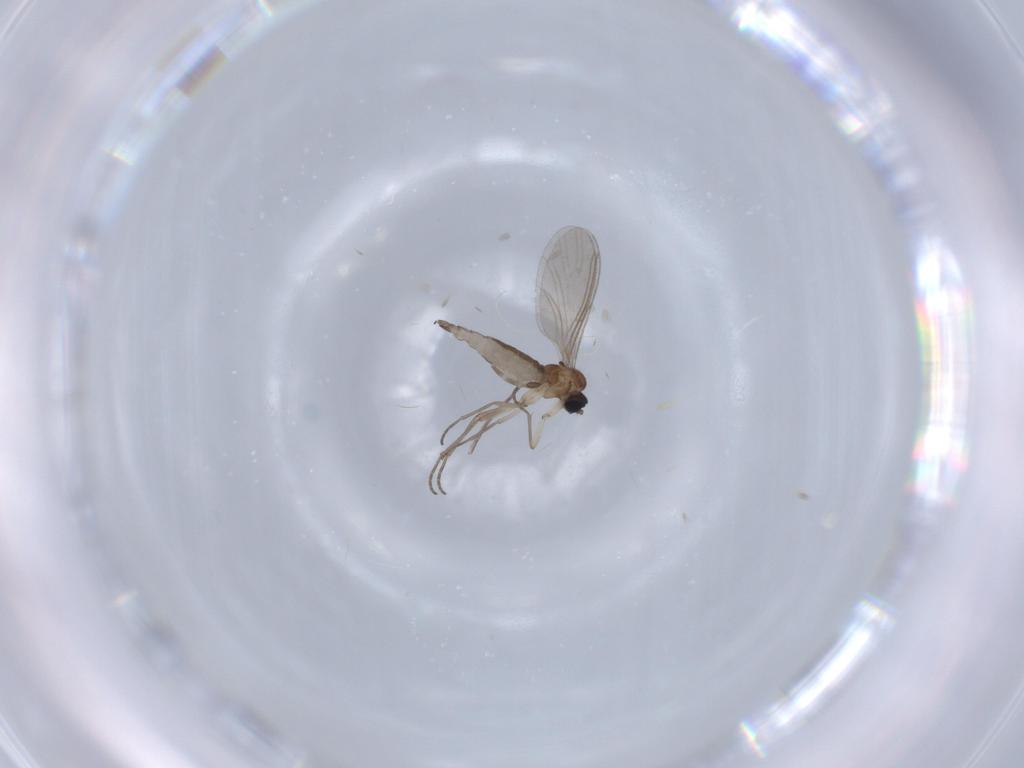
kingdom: Animalia
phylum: Arthropoda
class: Insecta
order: Diptera
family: Sciaridae
